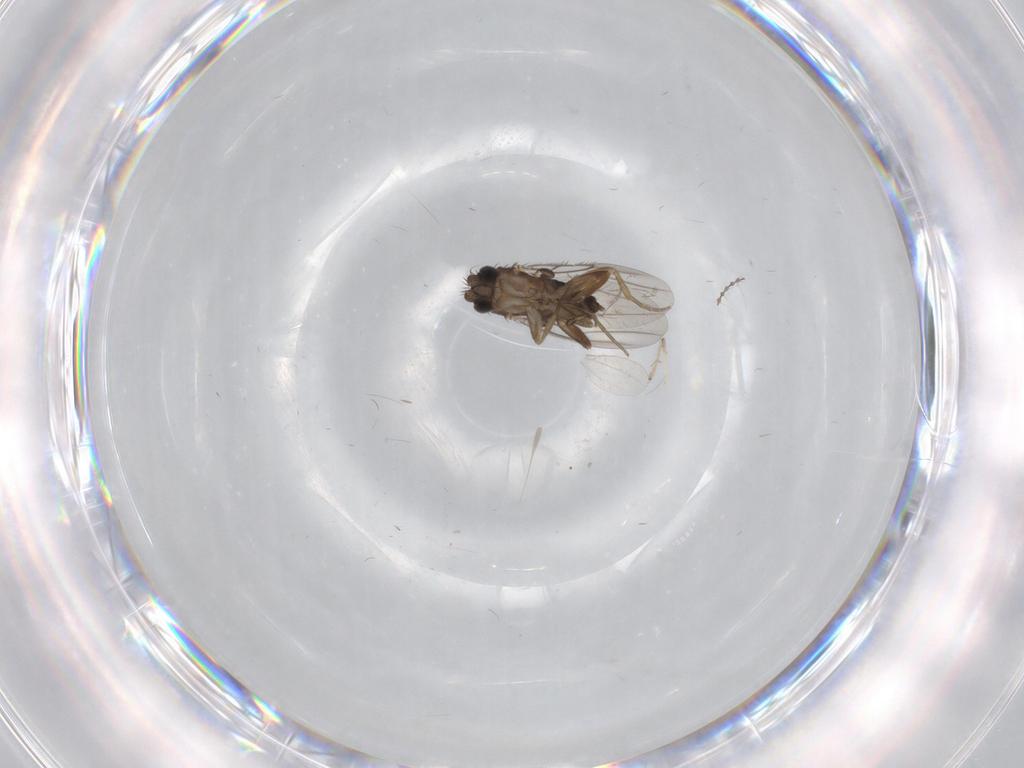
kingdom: Animalia
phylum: Arthropoda
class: Insecta
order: Diptera
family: Phoridae
